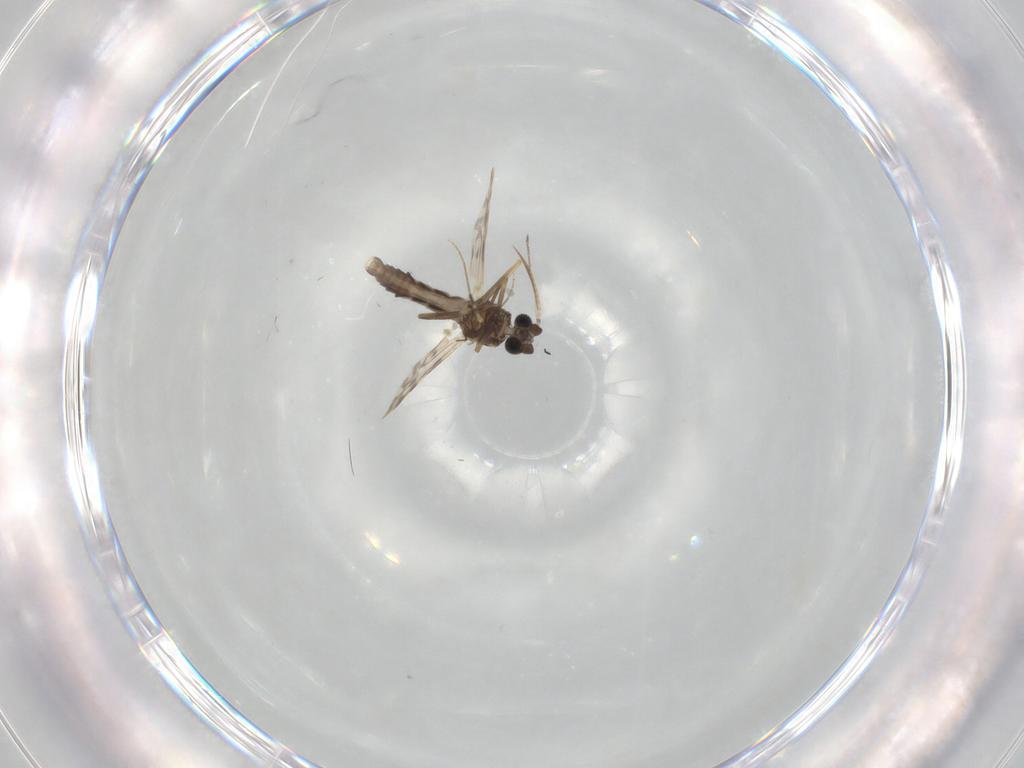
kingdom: Animalia
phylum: Arthropoda
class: Insecta
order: Diptera
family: Ceratopogonidae
